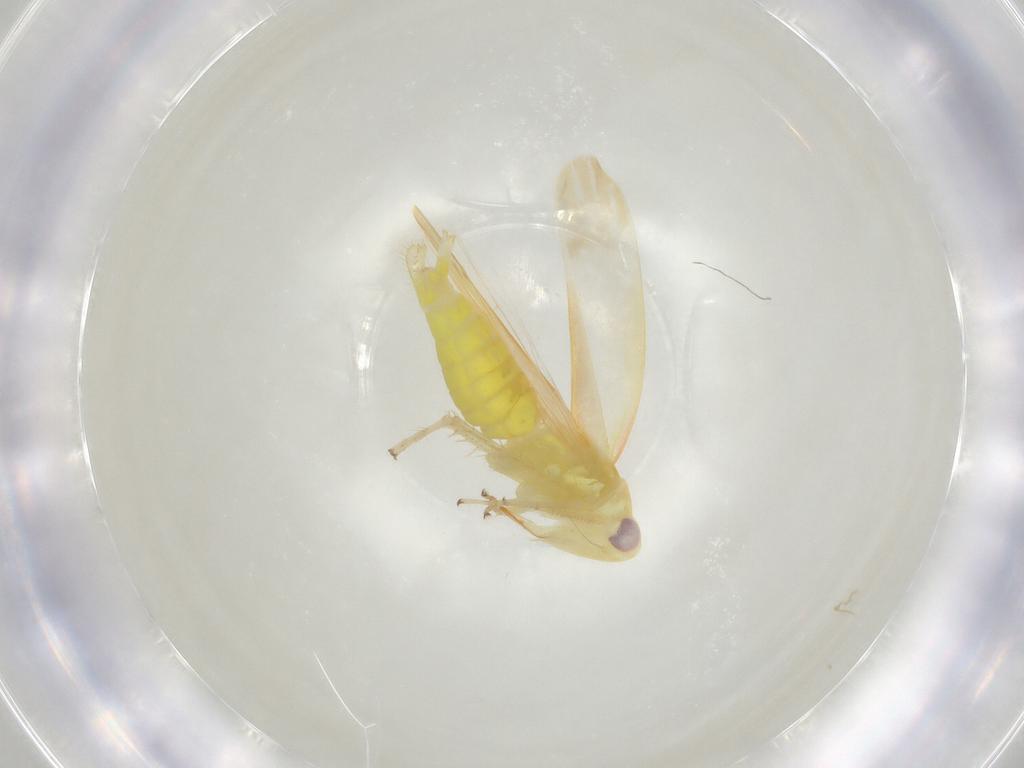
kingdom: Animalia
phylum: Arthropoda
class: Insecta
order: Hemiptera
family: Cicadellidae
